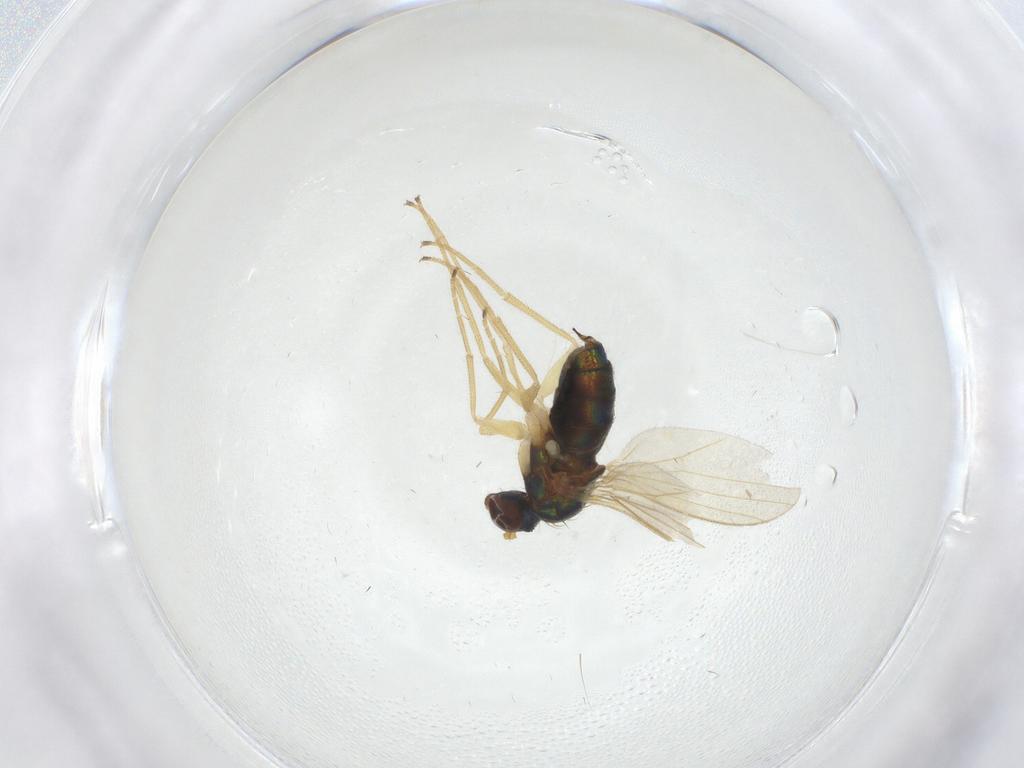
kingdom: Animalia
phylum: Arthropoda
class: Insecta
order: Diptera
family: Dolichopodidae
